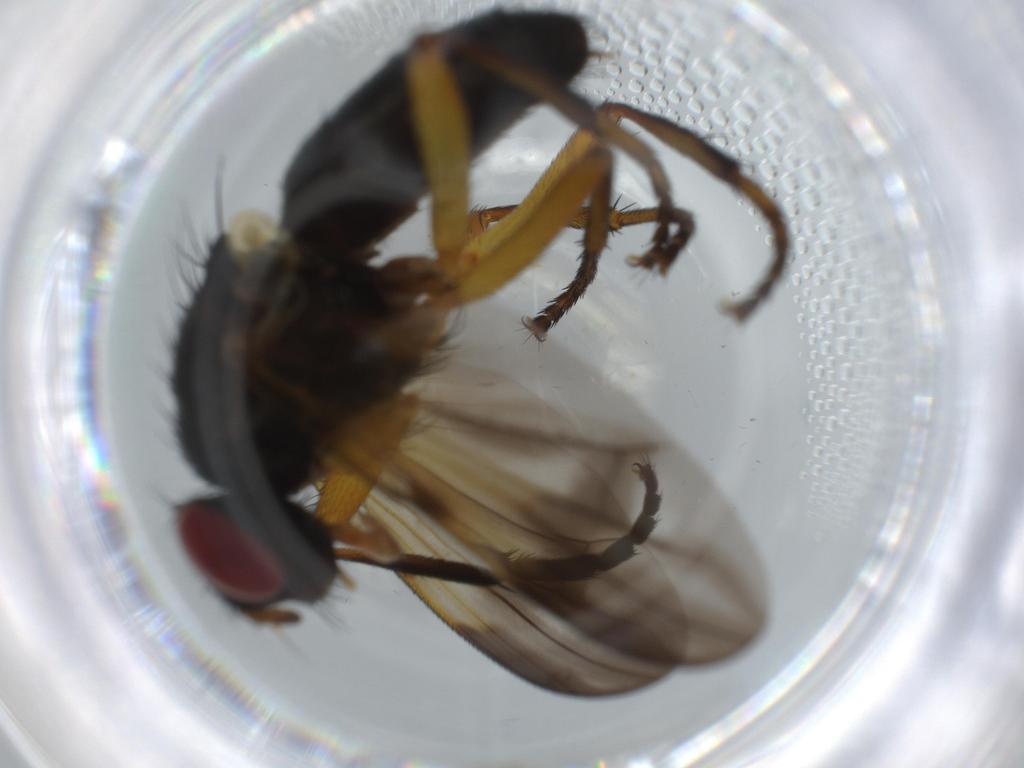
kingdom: Animalia
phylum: Arthropoda
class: Insecta
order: Diptera
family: Calliphoridae
